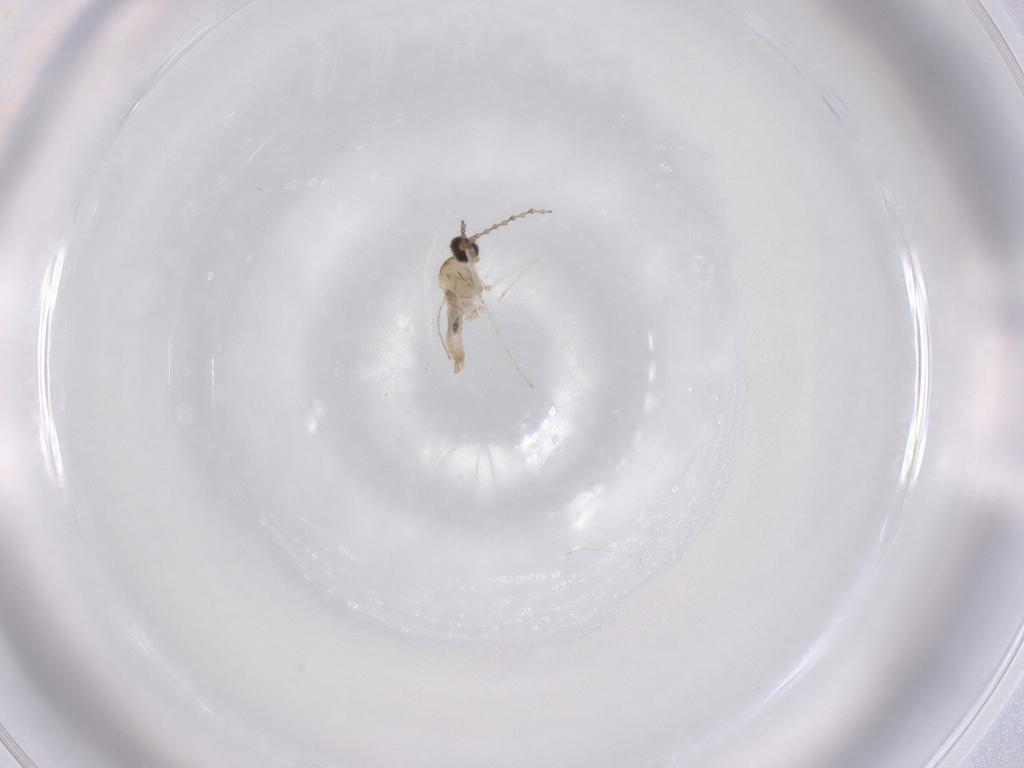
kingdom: Animalia
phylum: Arthropoda
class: Insecta
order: Diptera
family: Cecidomyiidae
